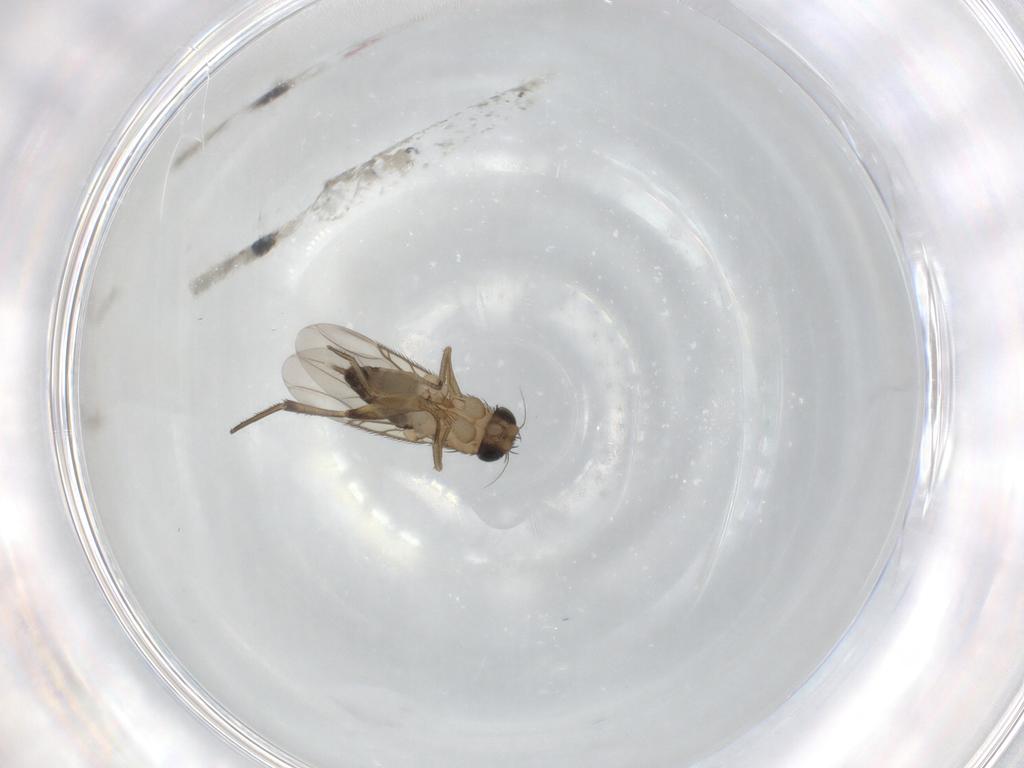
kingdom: Animalia
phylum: Arthropoda
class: Insecta
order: Diptera
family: Phoridae
